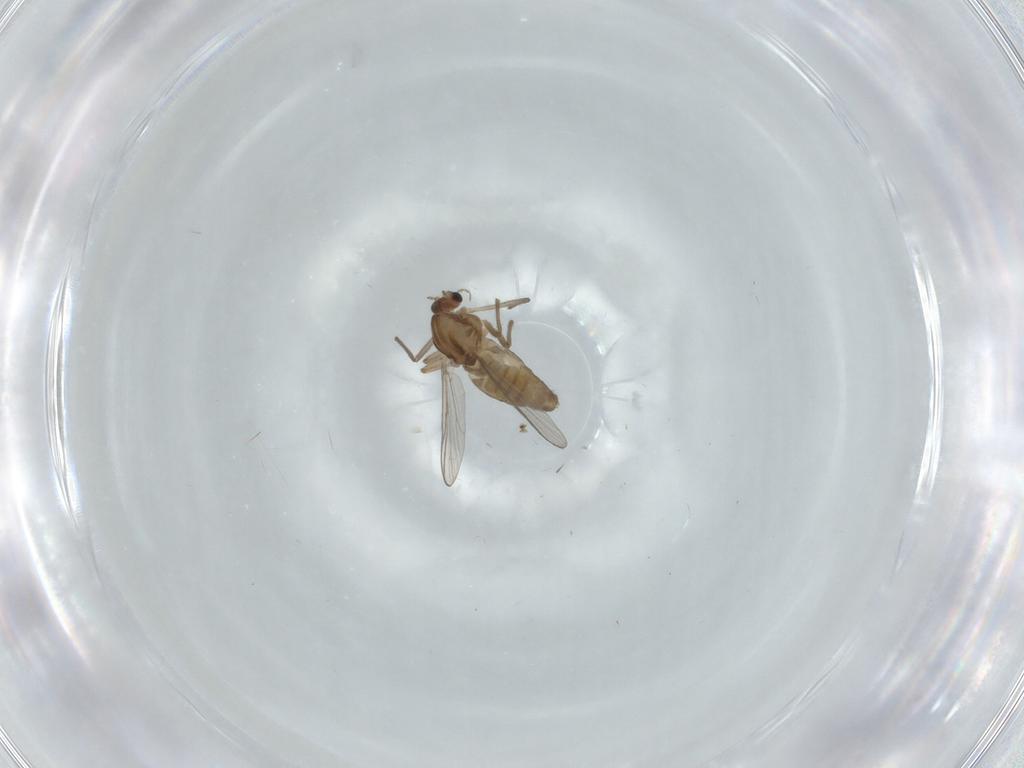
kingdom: Animalia
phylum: Arthropoda
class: Insecta
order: Diptera
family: Chironomidae
